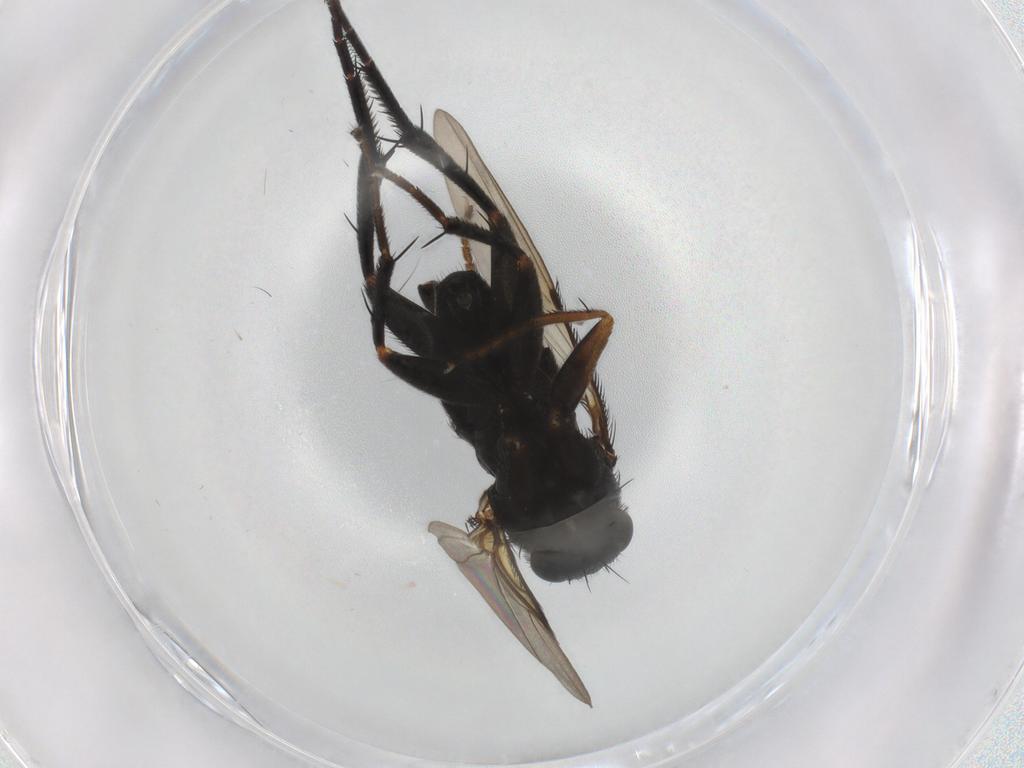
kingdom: Animalia
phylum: Arthropoda
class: Insecta
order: Diptera
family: Phoridae
